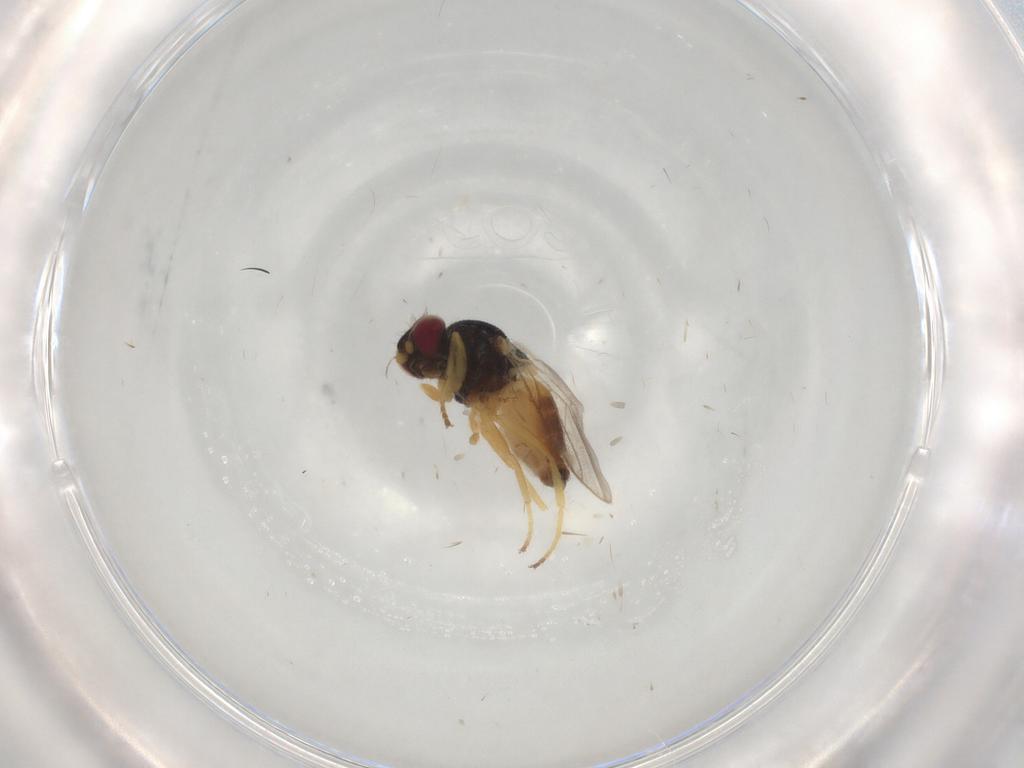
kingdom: Animalia
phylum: Arthropoda
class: Insecta
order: Diptera
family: Chloropidae
